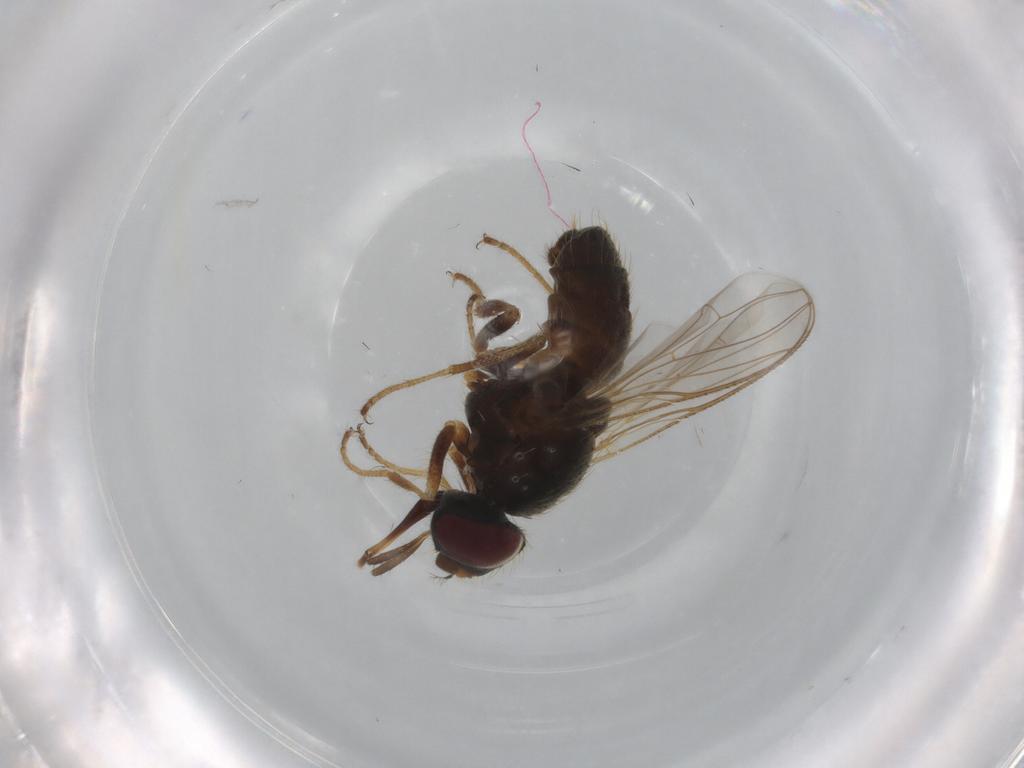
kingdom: Animalia
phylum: Arthropoda
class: Insecta
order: Diptera
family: Muscidae
